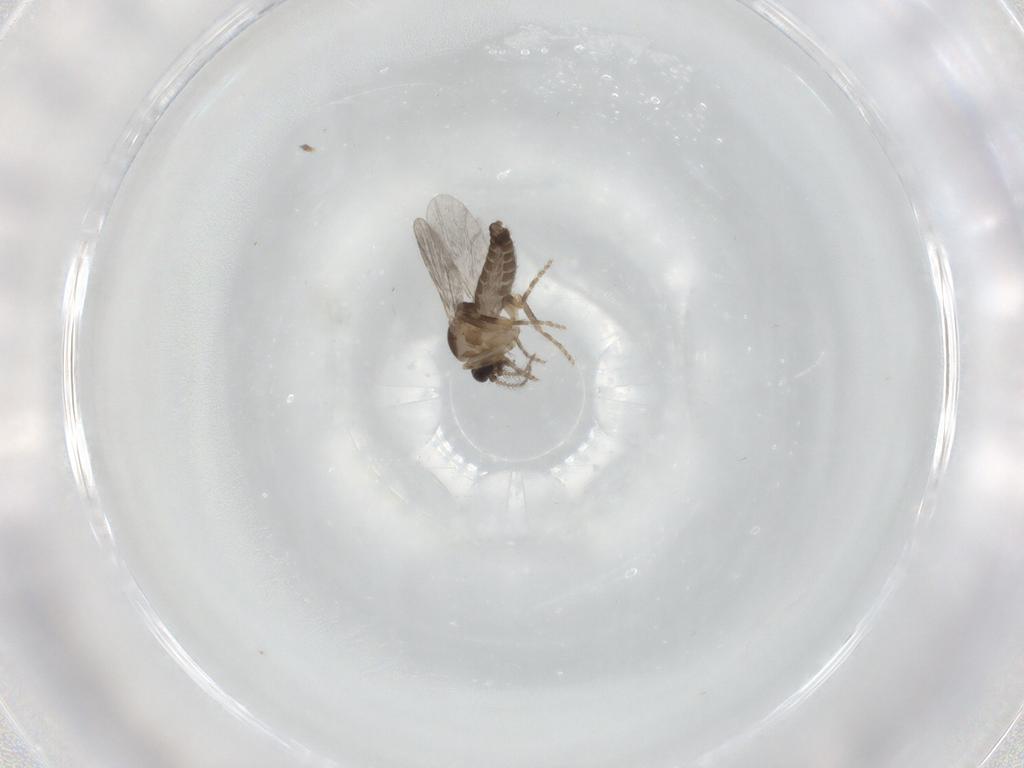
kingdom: Animalia
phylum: Arthropoda
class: Insecta
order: Diptera
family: Ceratopogonidae
